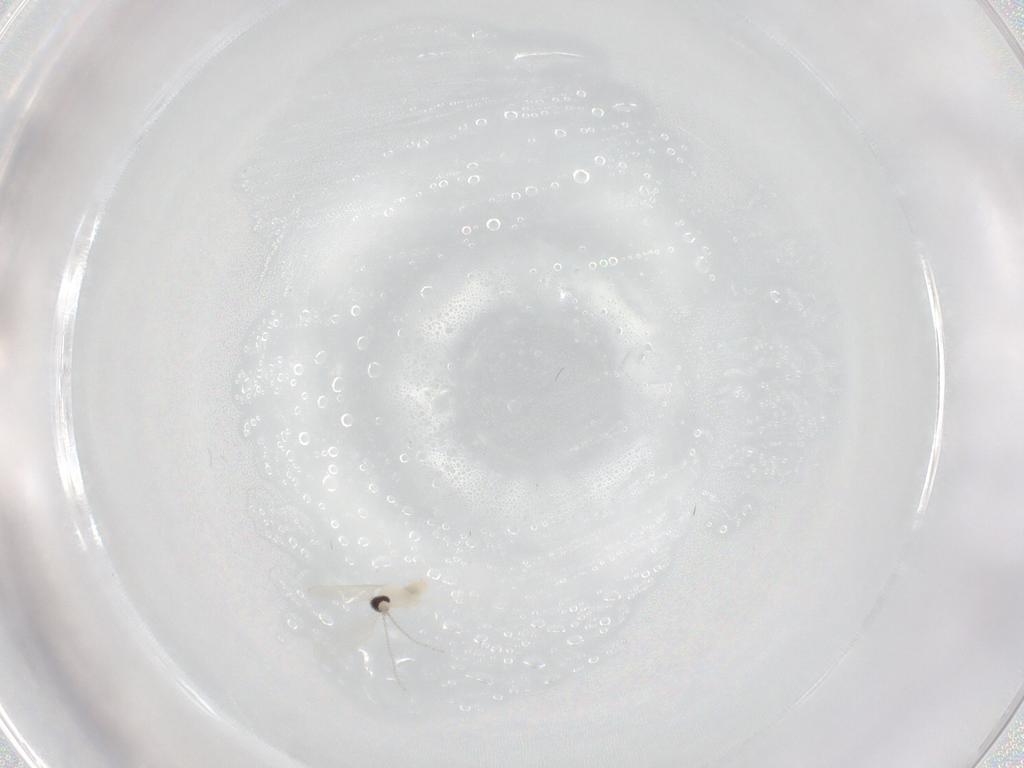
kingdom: Animalia
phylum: Arthropoda
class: Insecta
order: Diptera
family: Cecidomyiidae
